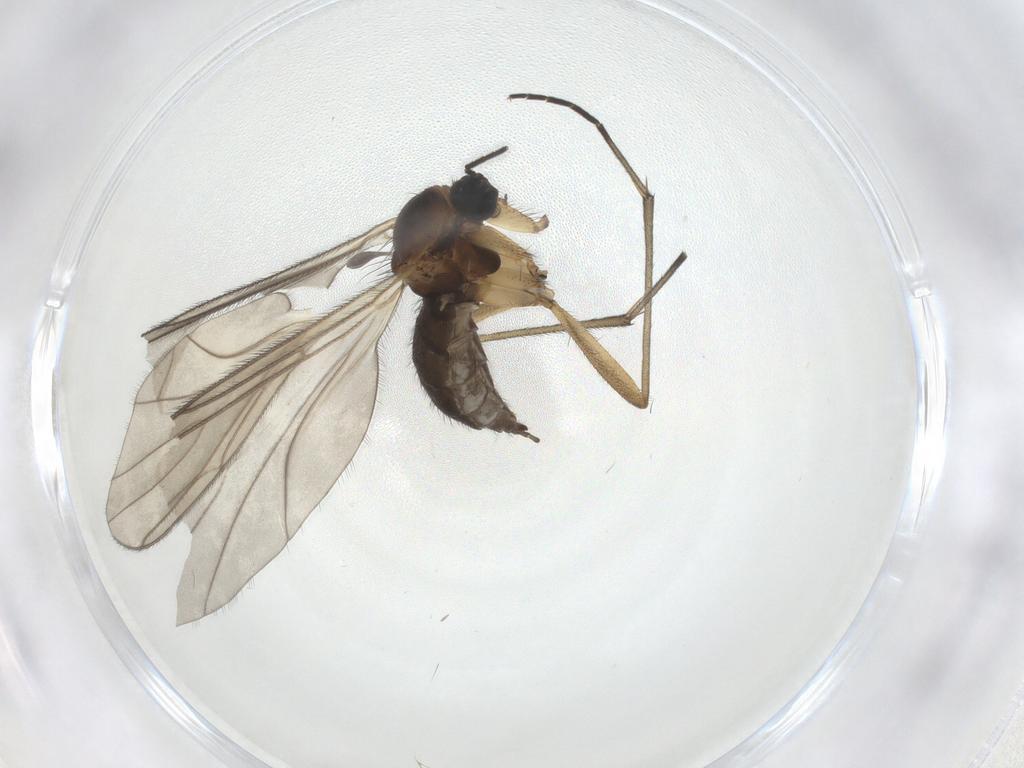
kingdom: Animalia
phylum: Arthropoda
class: Insecta
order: Diptera
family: Sciaridae
